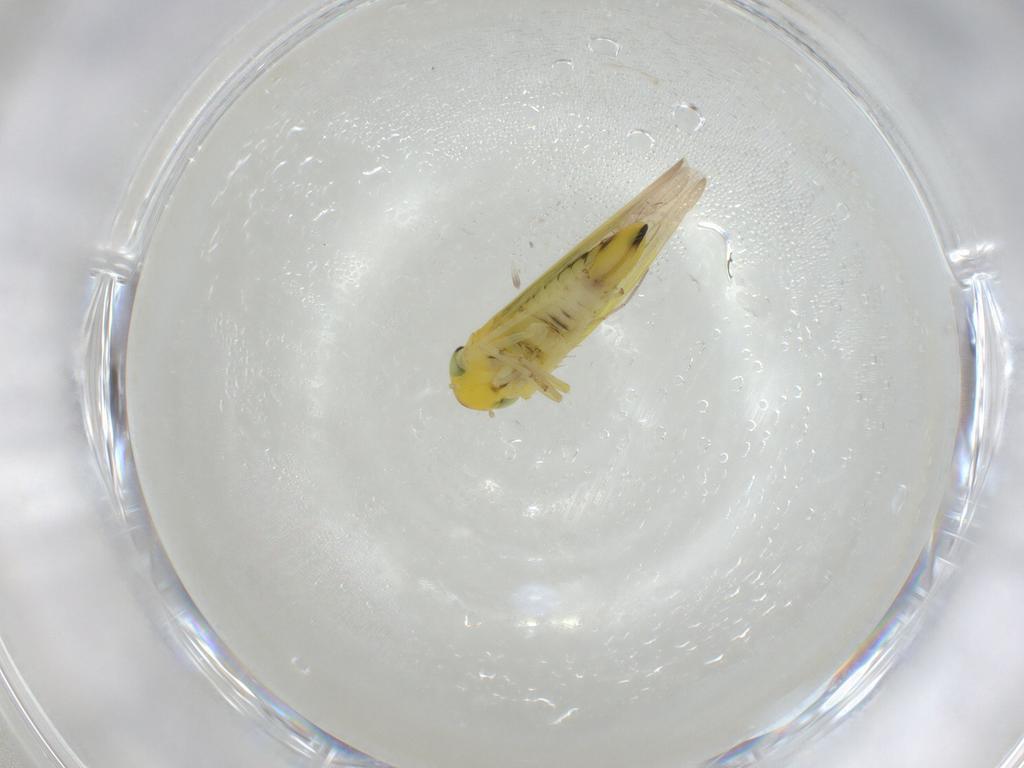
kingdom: Animalia
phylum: Arthropoda
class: Insecta
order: Hemiptera
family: Cicadellidae
